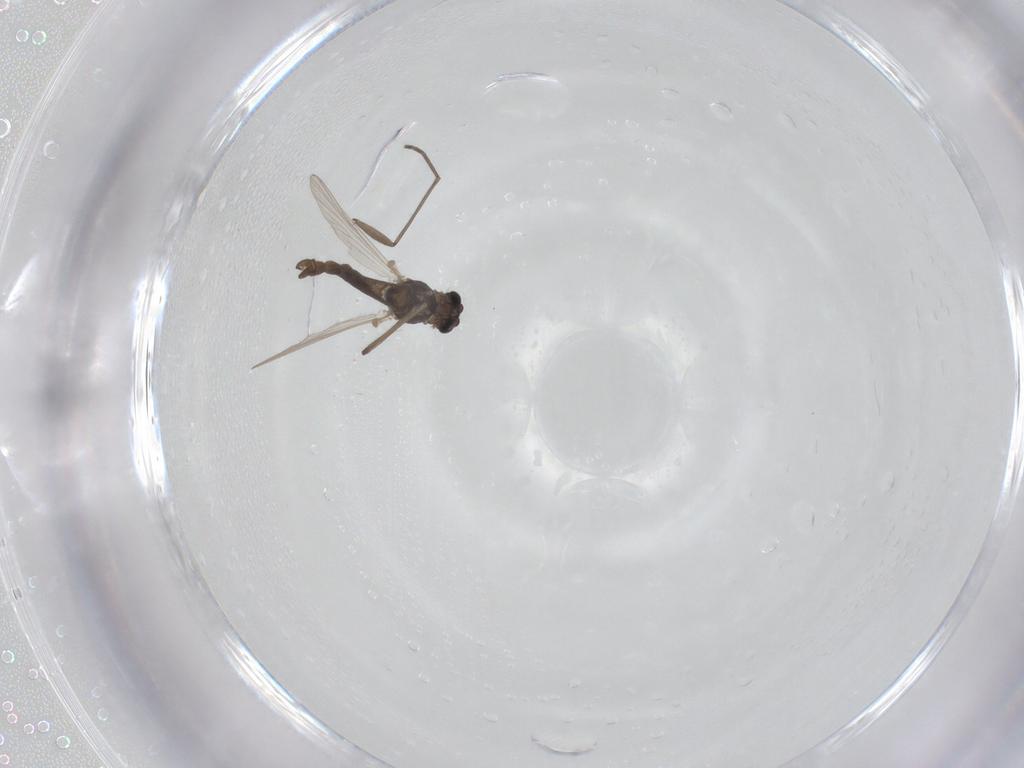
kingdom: Animalia
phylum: Arthropoda
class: Insecta
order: Diptera
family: Chironomidae
